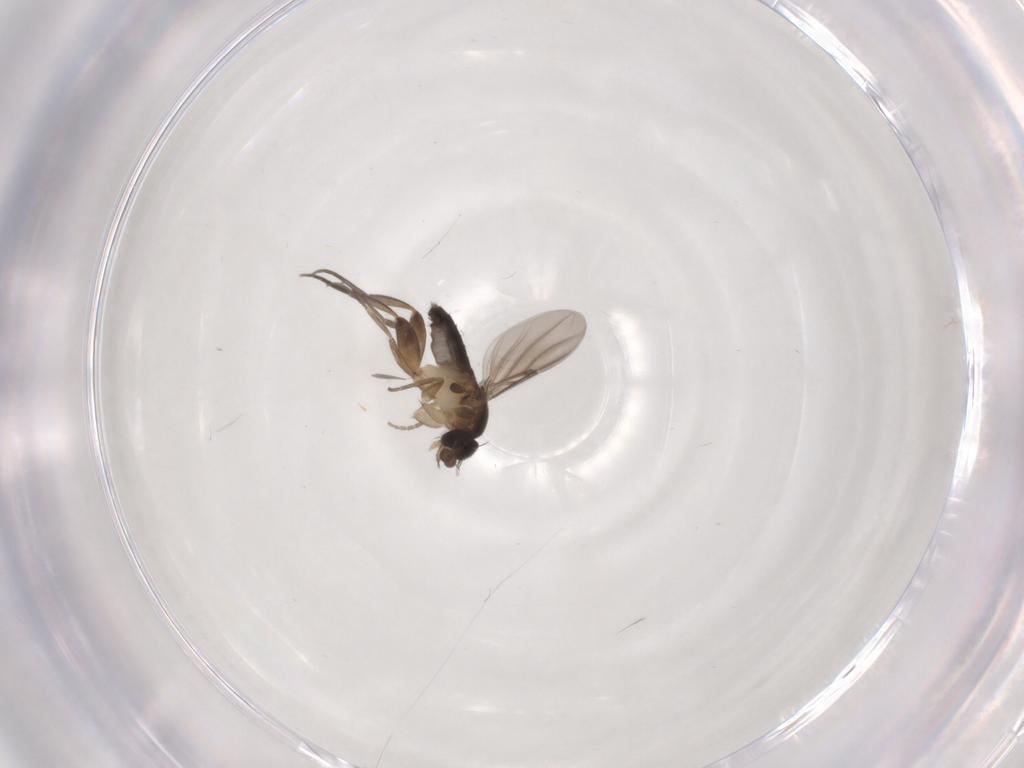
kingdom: Animalia
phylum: Arthropoda
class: Insecta
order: Diptera
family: Phoridae
